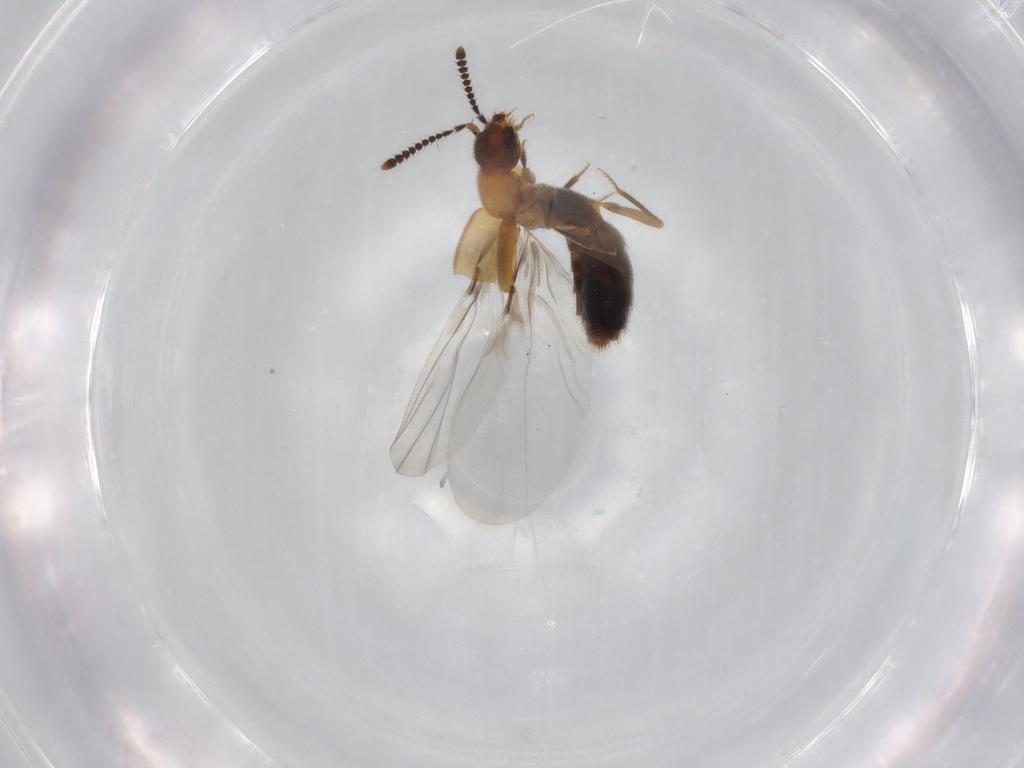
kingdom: Animalia
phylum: Arthropoda
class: Insecta
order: Coleoptera
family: Staphylinidae
